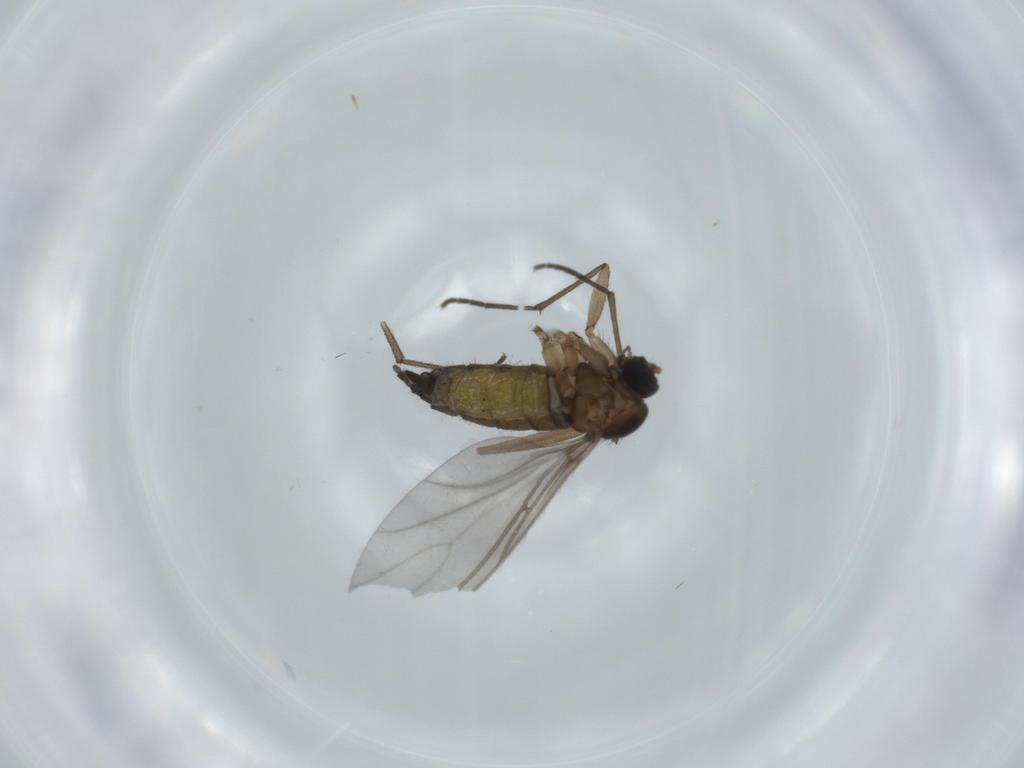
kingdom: Animalia
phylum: Arthropoda
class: Insecta
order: Diptera
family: Sciaridae
